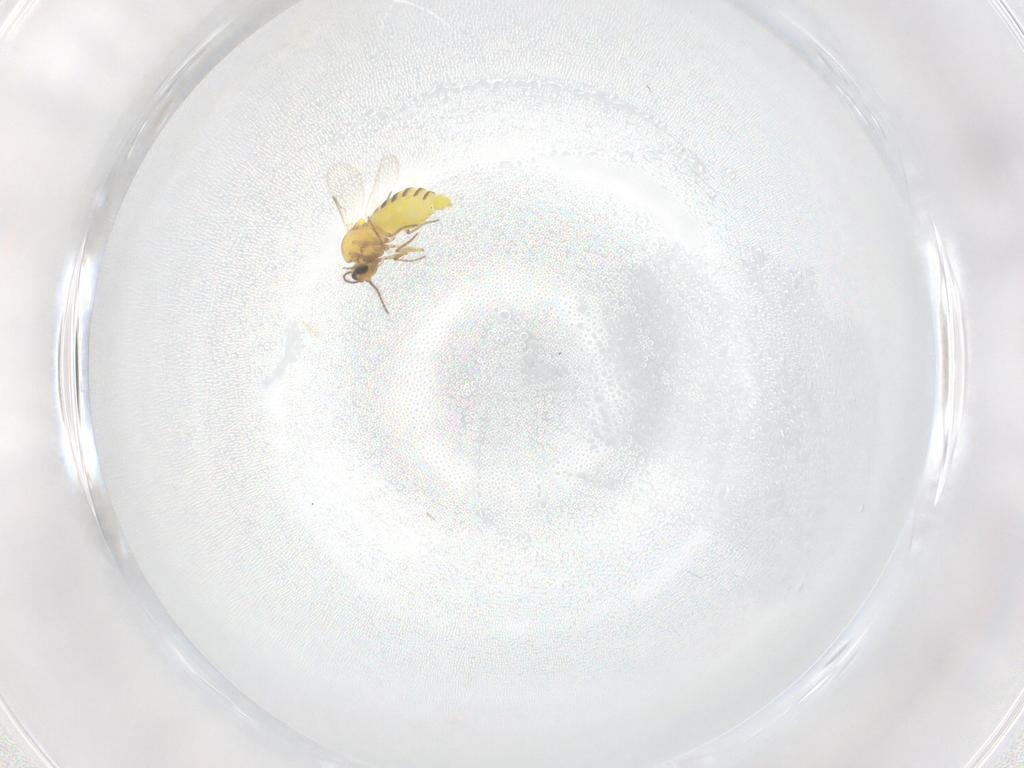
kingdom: Animalia
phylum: Arthropoda
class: Insecta
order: Diptera
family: Ceratopogonidae
